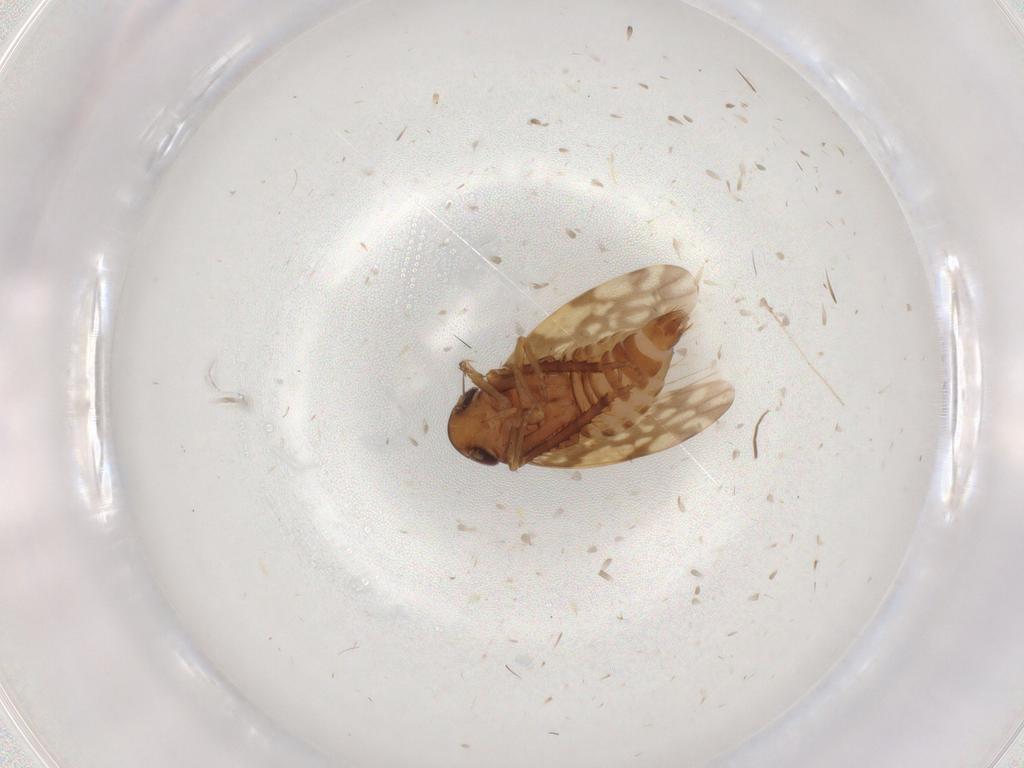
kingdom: Animalia
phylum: Arthropoda
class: Insecta
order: Hemiptera
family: Cicadellidae
